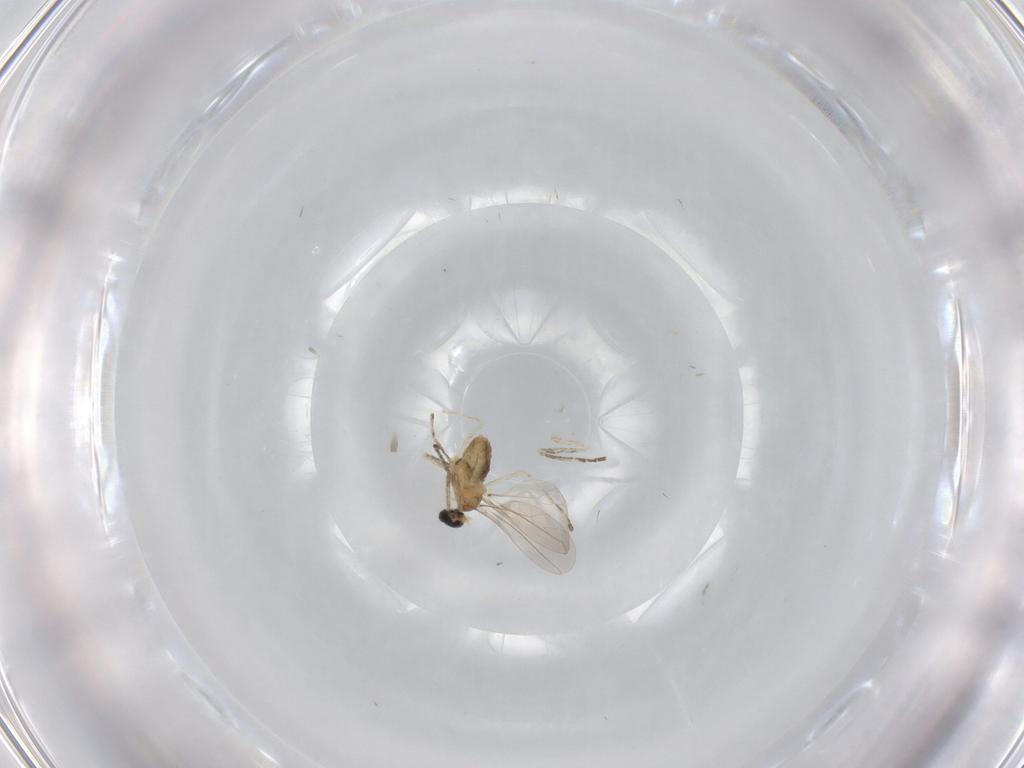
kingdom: Animalia
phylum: Arthropoda
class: Insecta
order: Diptera
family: Cecidomyiidae
